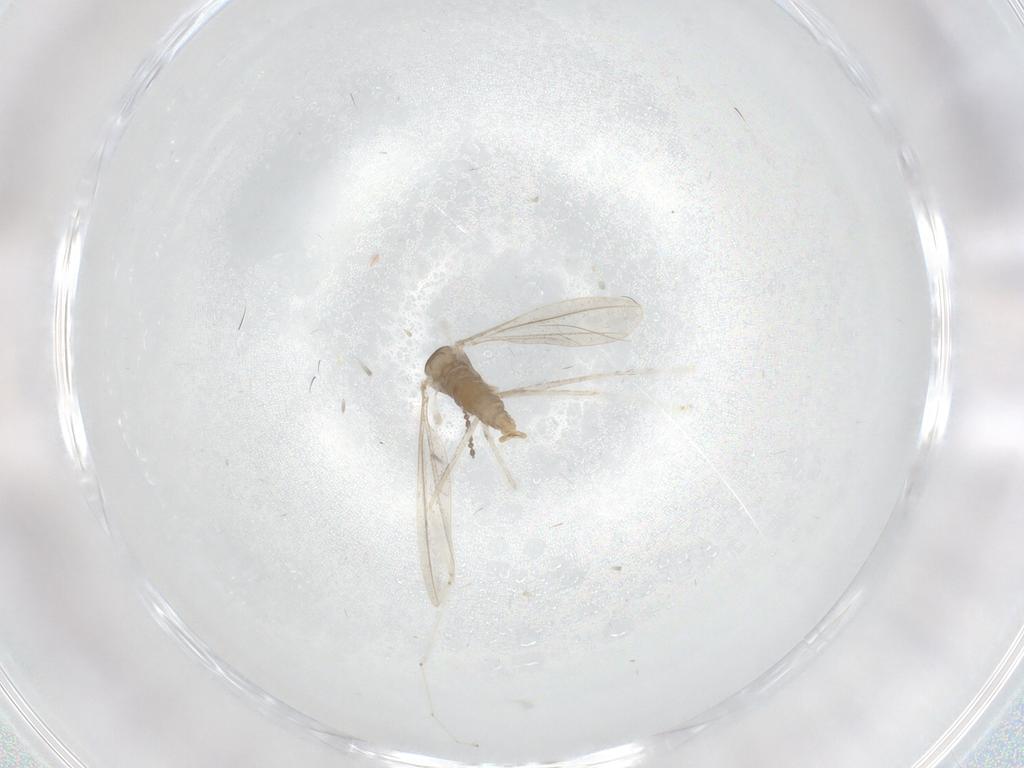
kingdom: Animalia
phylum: Arthropoda
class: Insecta
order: Diptera
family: Cecidomyiidae
